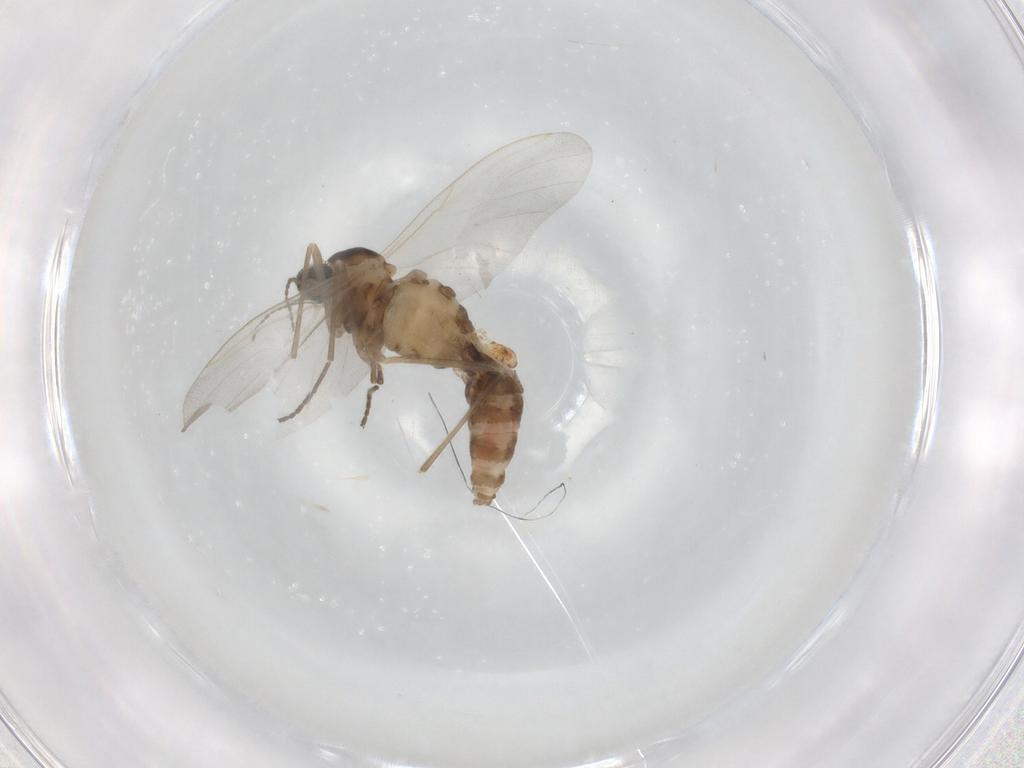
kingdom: Animalia
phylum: Arthropoda
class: Insecta
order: Diptera
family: Cecidomyiidae
